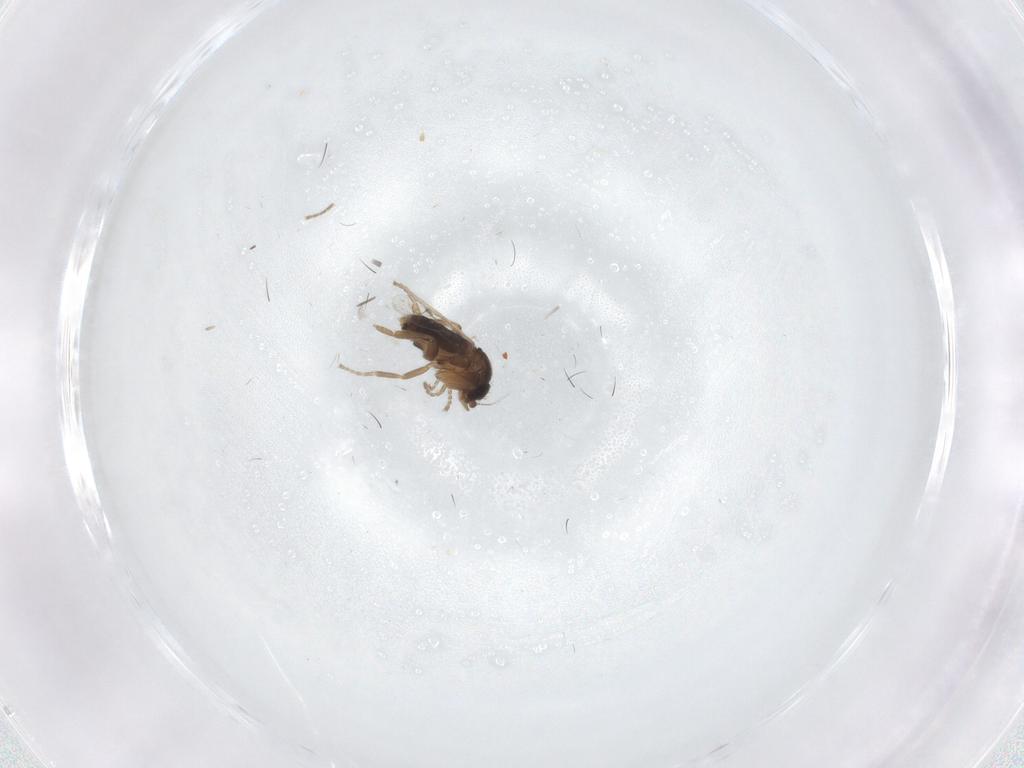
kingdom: Animalia
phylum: Arthropoda
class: Insecta
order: Diptera
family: Phoridae
